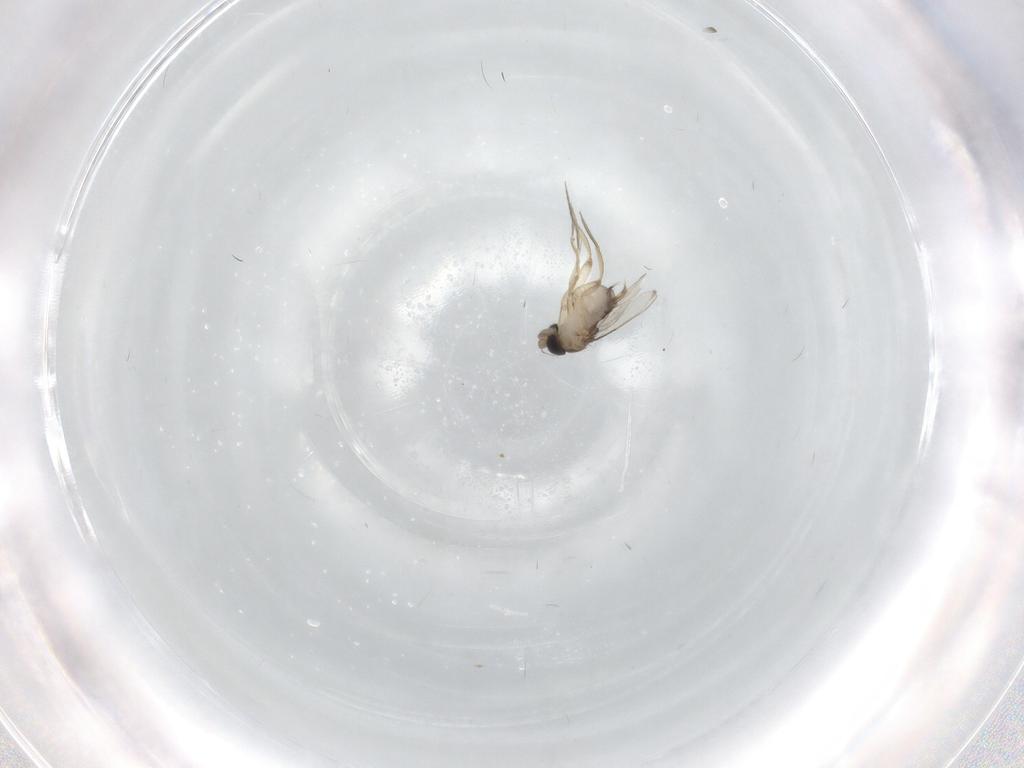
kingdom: Animalia
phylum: Arthropoda
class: Insecta
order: Diptera
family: Phoridae
